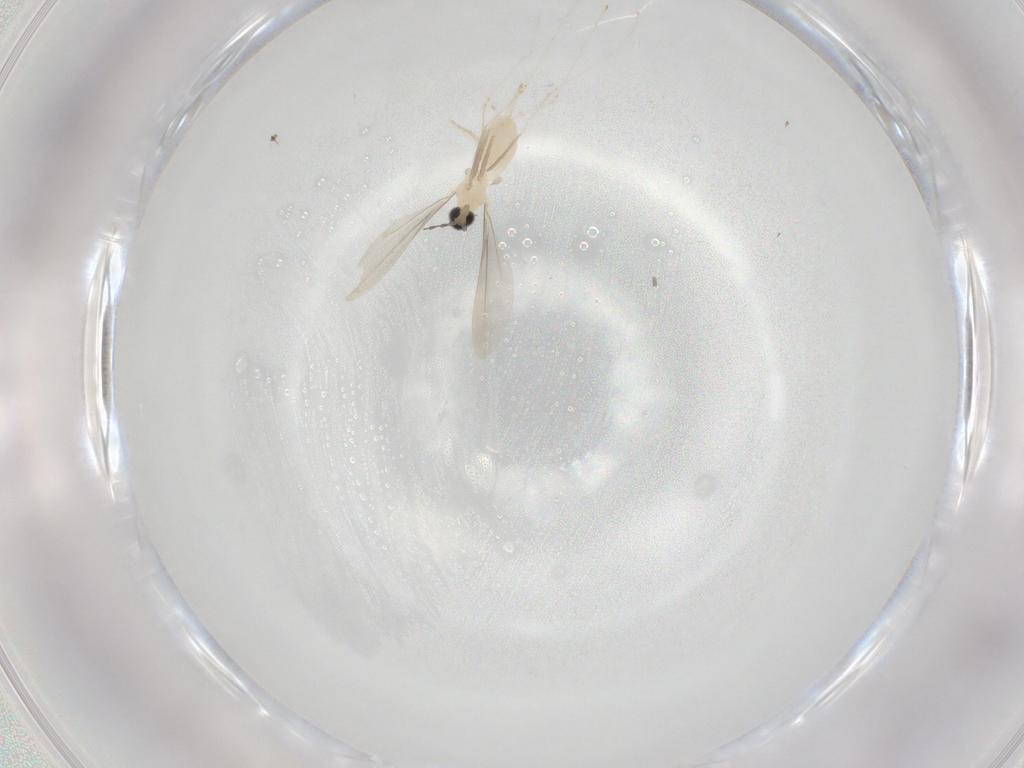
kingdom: Animalia
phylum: Arthropoda
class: Insecta
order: Diptera
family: Cecidomyiidae
